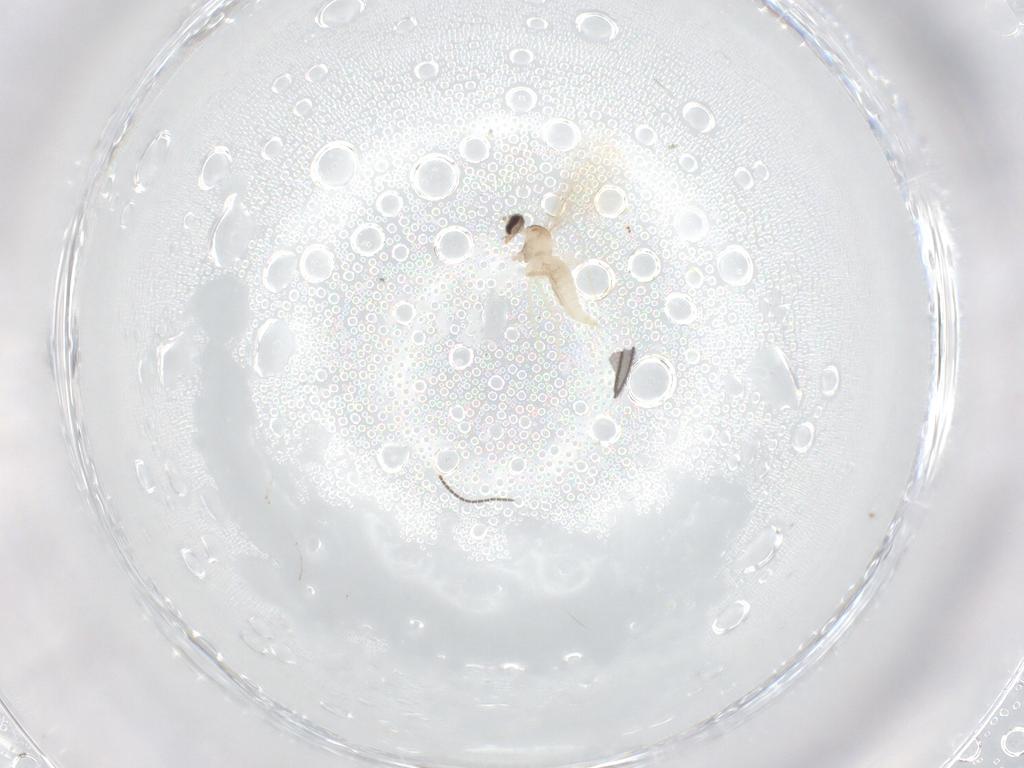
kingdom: Animalia
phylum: Arthropoda
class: Insecta
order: Diptera
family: Cecidomyiidae
